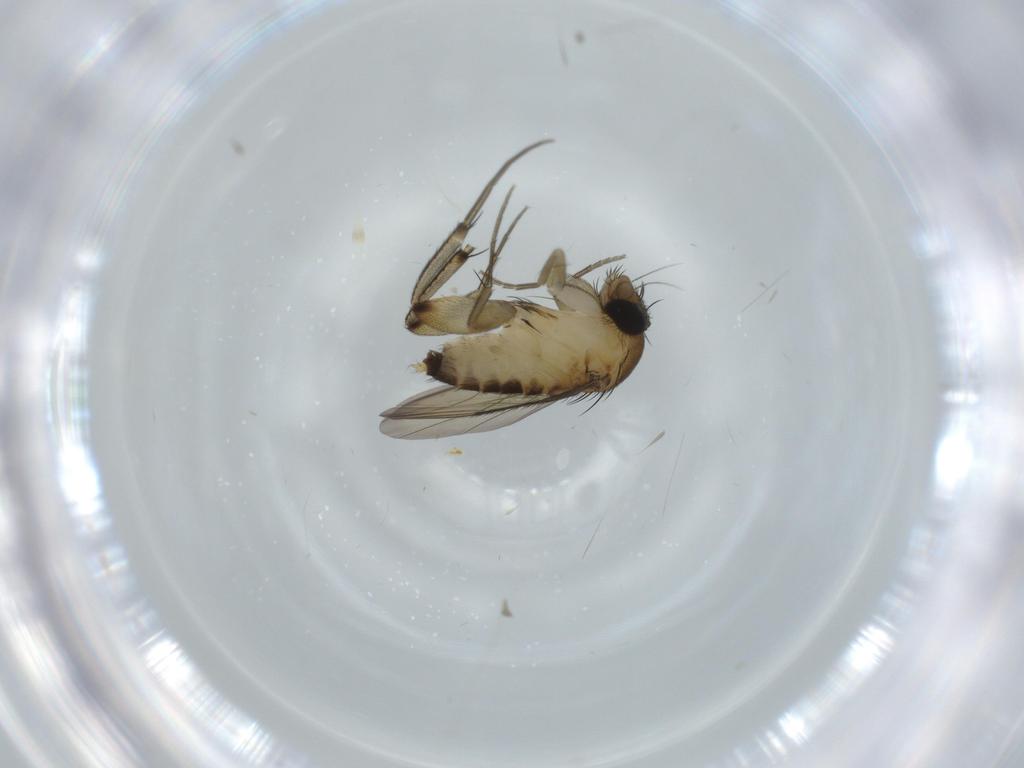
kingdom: Animalia
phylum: Arthropoda
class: Insecta
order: Diptera
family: Phoridae
